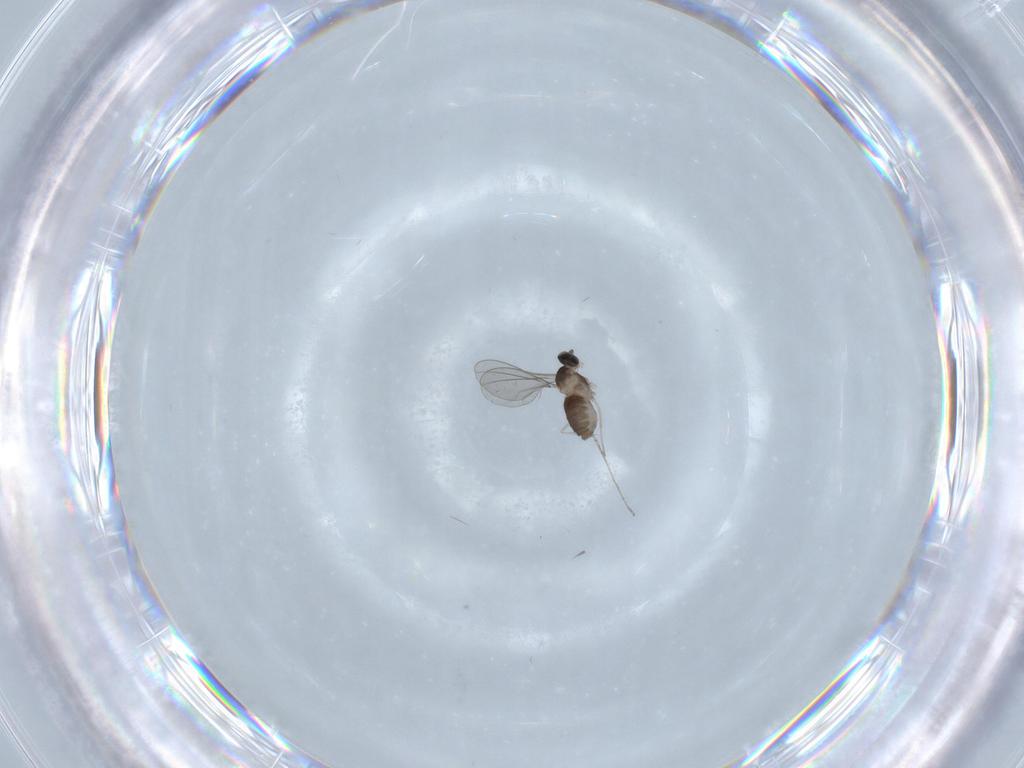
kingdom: Animalia
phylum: Arthropoda
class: Insecta
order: Diptera
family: Cecidomyiidae
